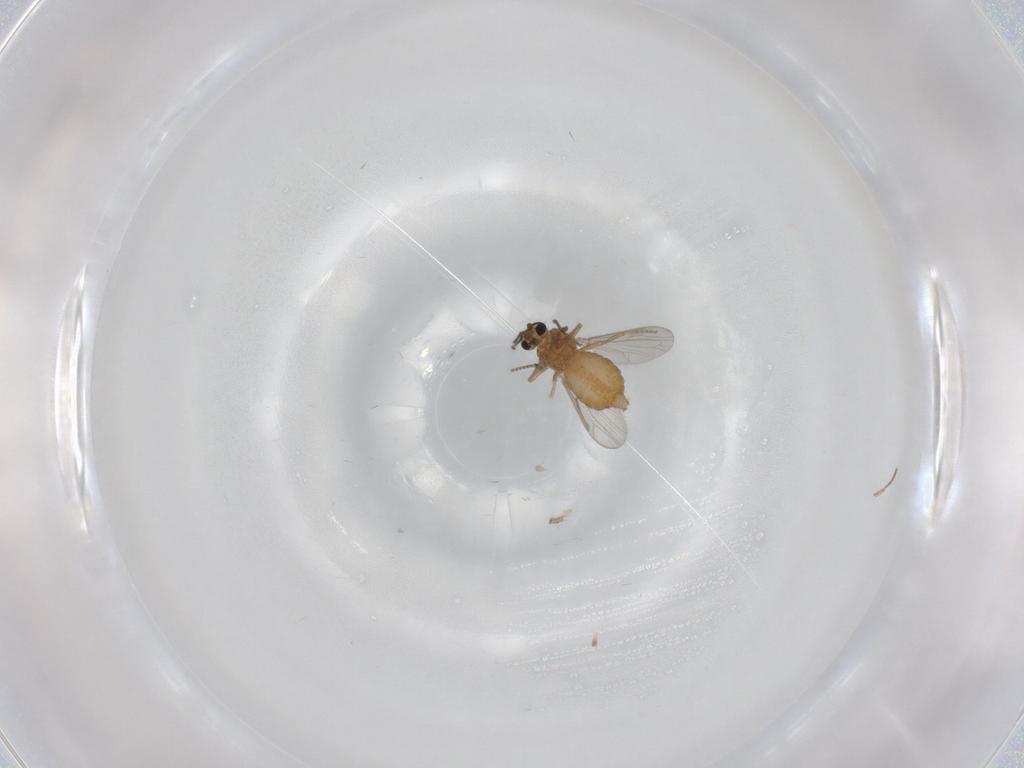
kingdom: Animalia
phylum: Arthropoda
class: Insecta
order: Diptera
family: Ceratopogonidae
